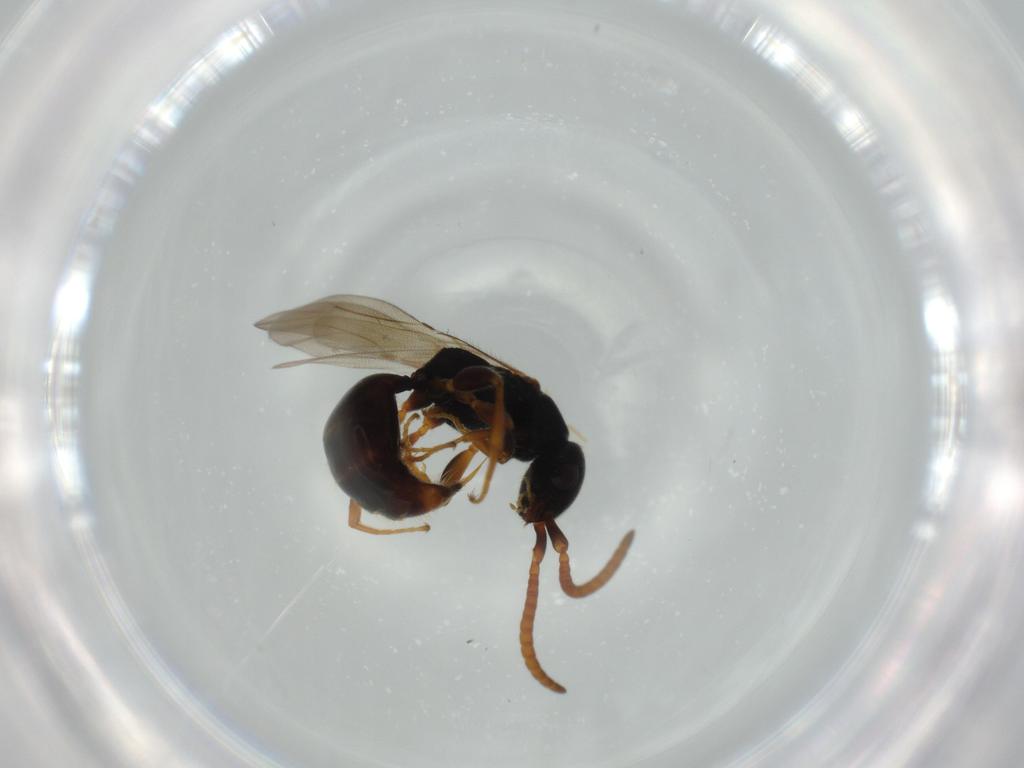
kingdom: Animalia
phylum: Arthropoda
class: Insecta
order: Hymenoptera
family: Bethylidae
